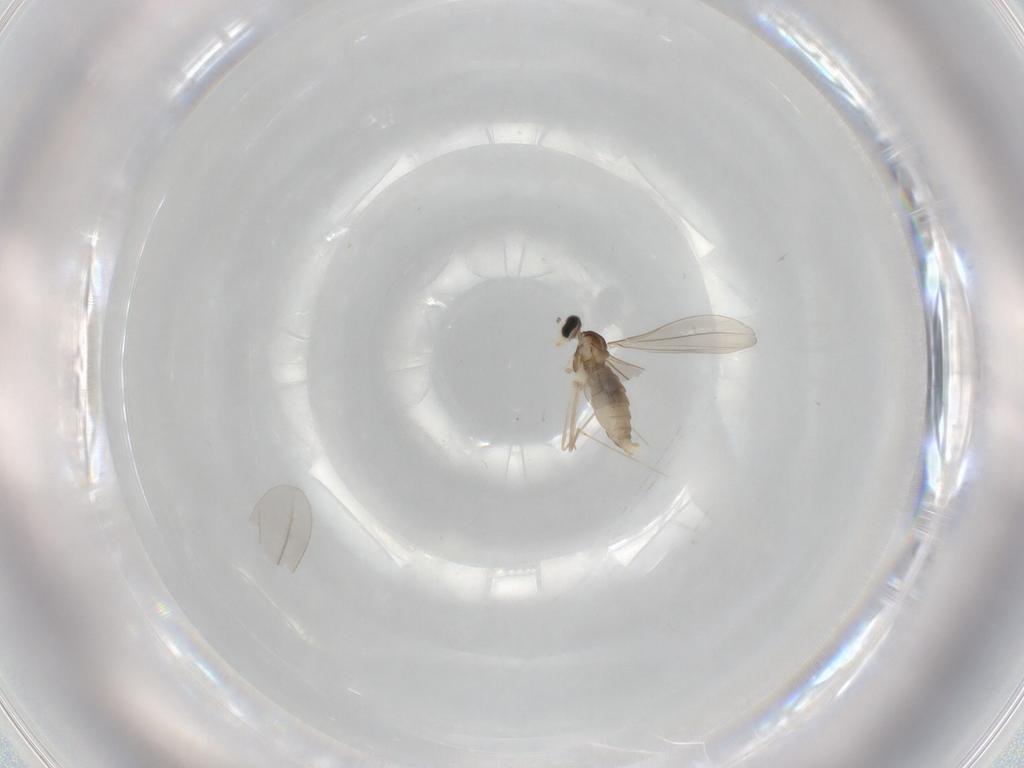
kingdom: Animalia
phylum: Arthropoda
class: Insecta
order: Diptera
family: Cecidomyiidae
